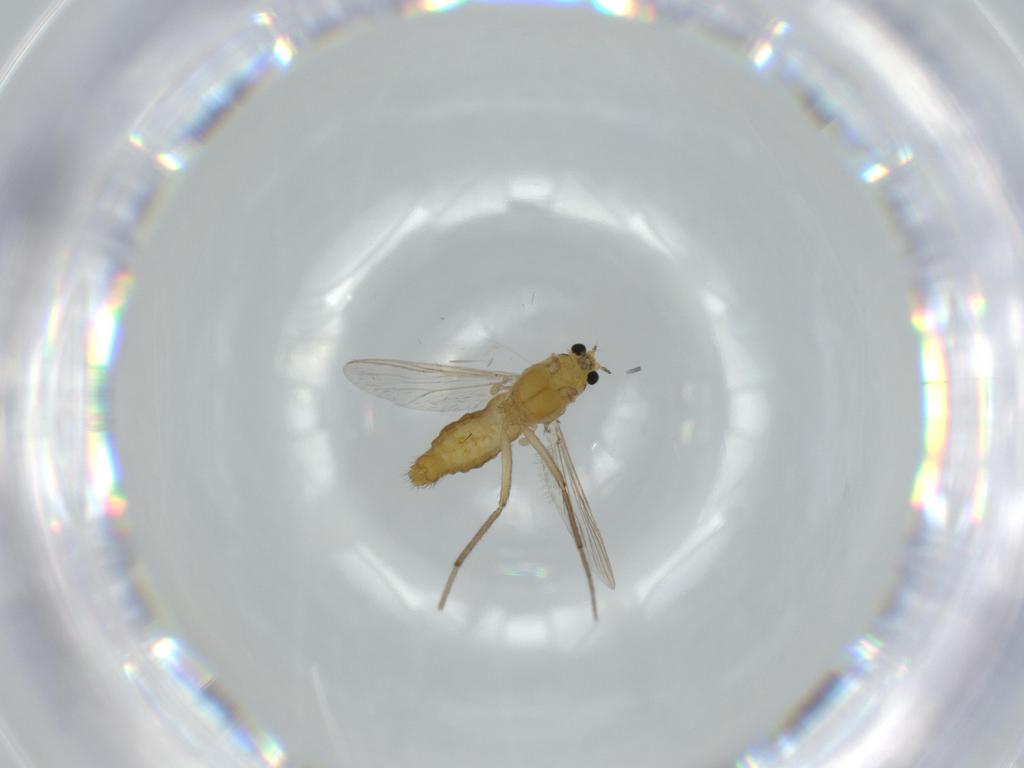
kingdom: Animalia
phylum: Arthropoda
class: Insecta
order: Diptera
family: Chironomidae
